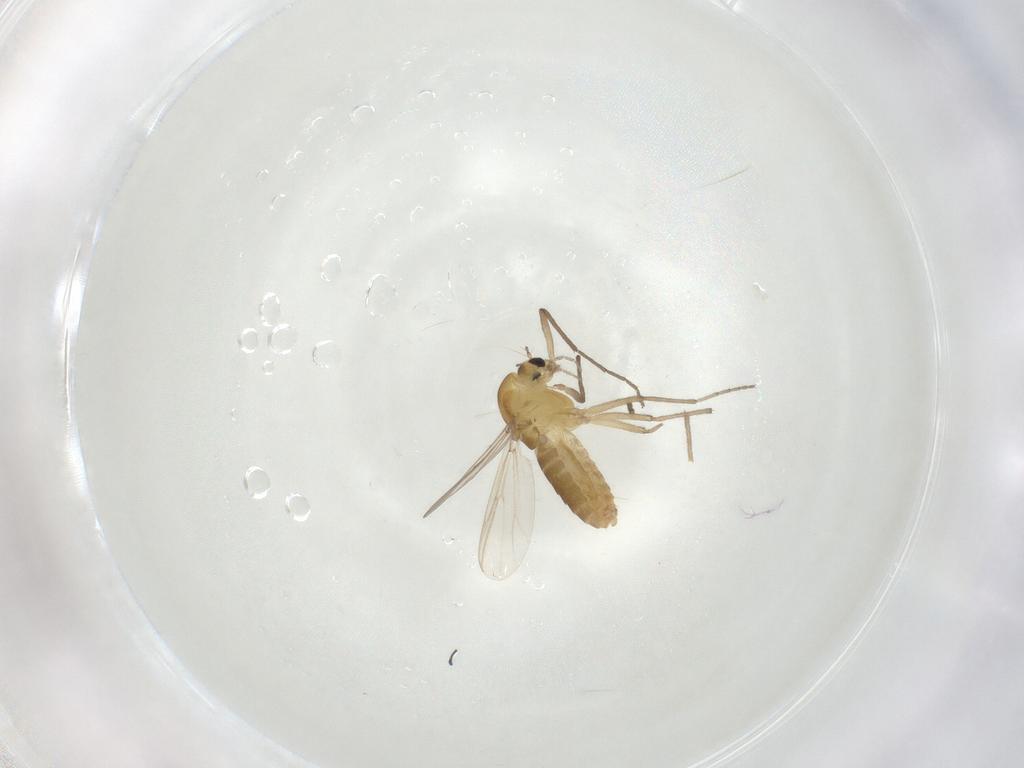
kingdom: Animalia
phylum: Arthropoda
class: Insecta
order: Diptera
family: Chironomidae
